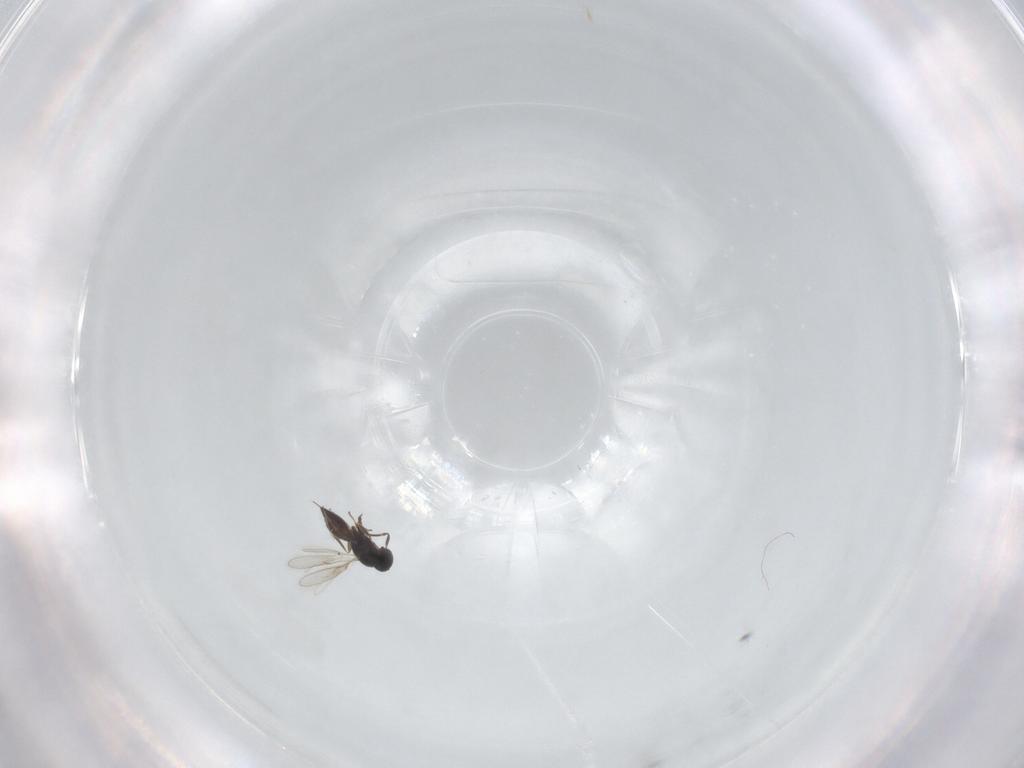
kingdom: Animalia
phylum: Arthropoda
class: Insecta
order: Hymenoptera
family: Scelionidae
